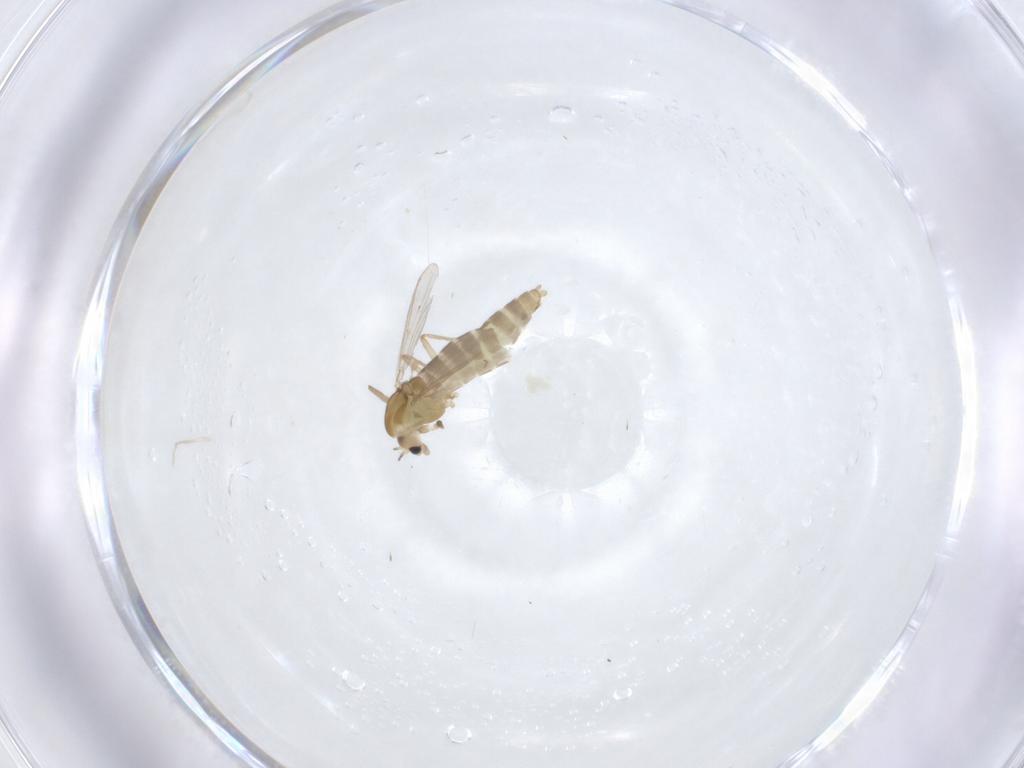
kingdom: Animalia
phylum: Arthropoda
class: Insecta
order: Diptera
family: Chironomidae
